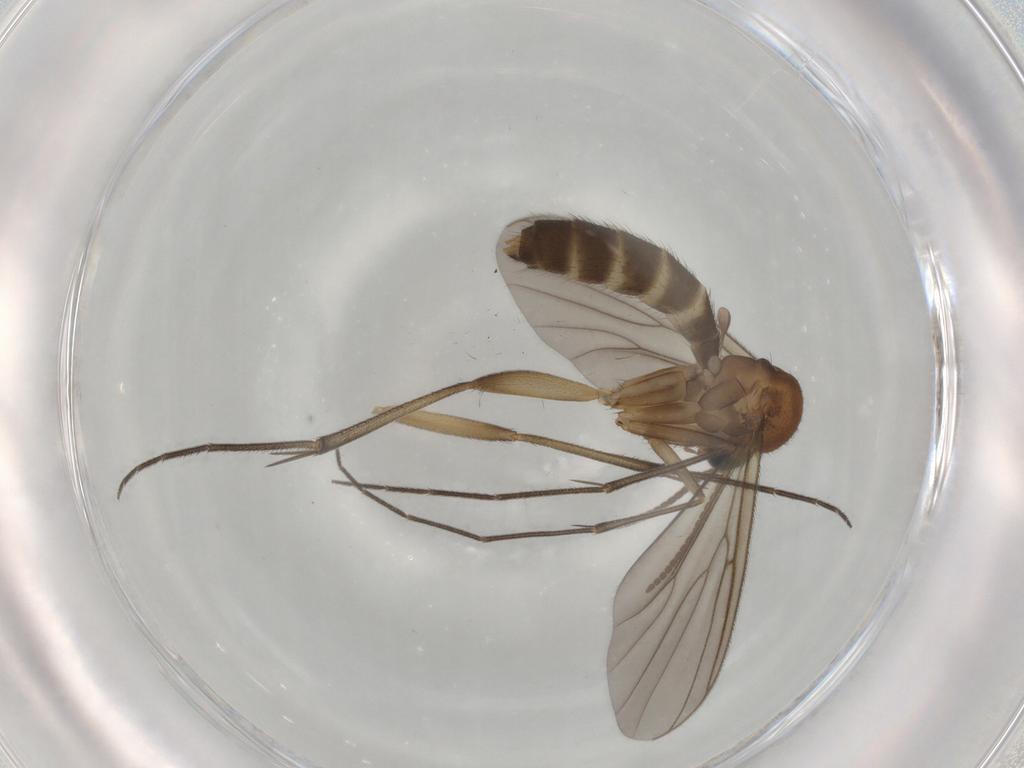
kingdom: Animalia
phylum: Arthropoda
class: Insecta
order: Diptera
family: Mycetophilidae
